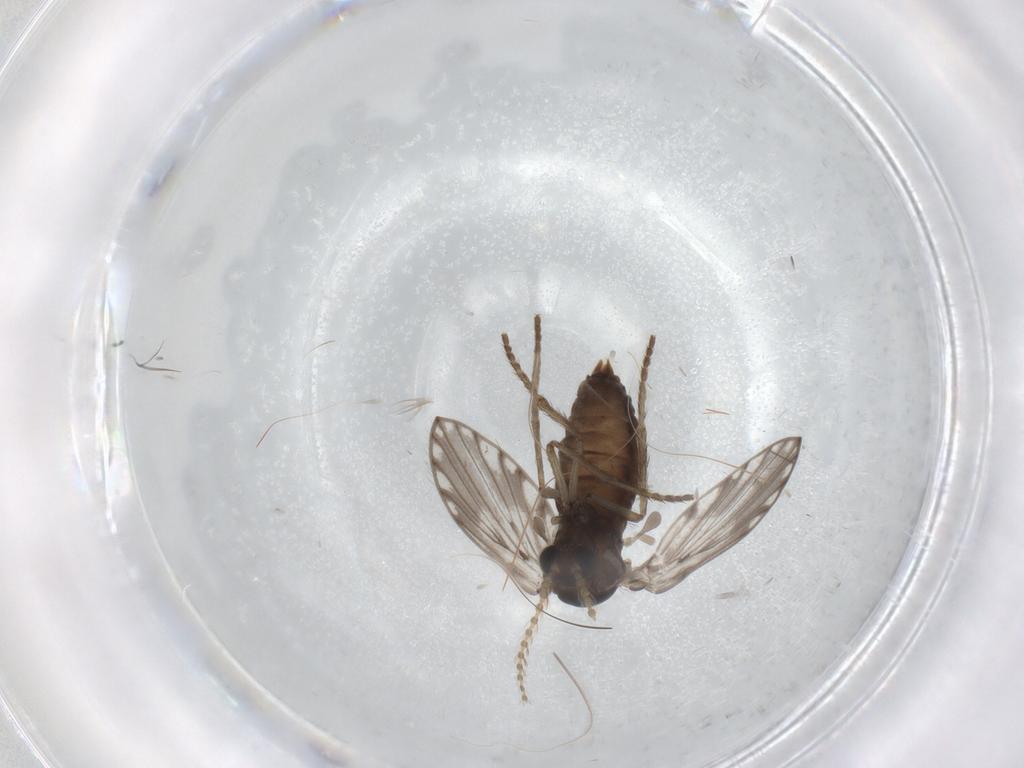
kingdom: Animalia
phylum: Arthropoda
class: Insecta
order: Diptera
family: Psychodidae
